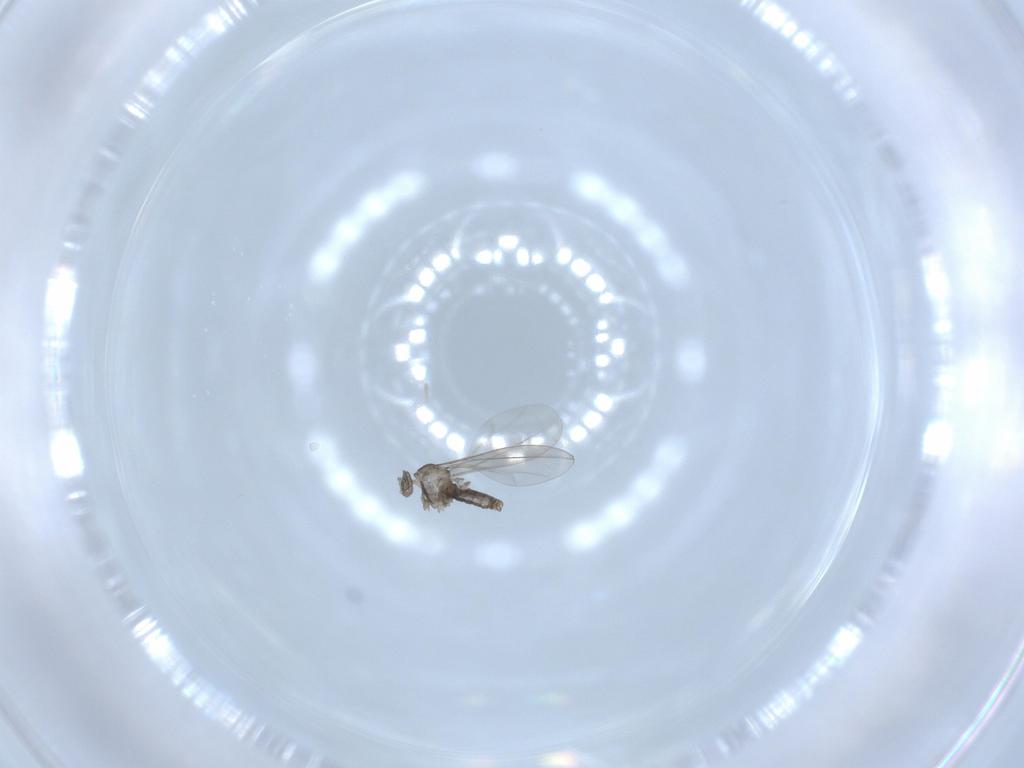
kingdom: Animalia
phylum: Arthropoda
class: Insecta
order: Diptera
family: Cecidomyiidae
